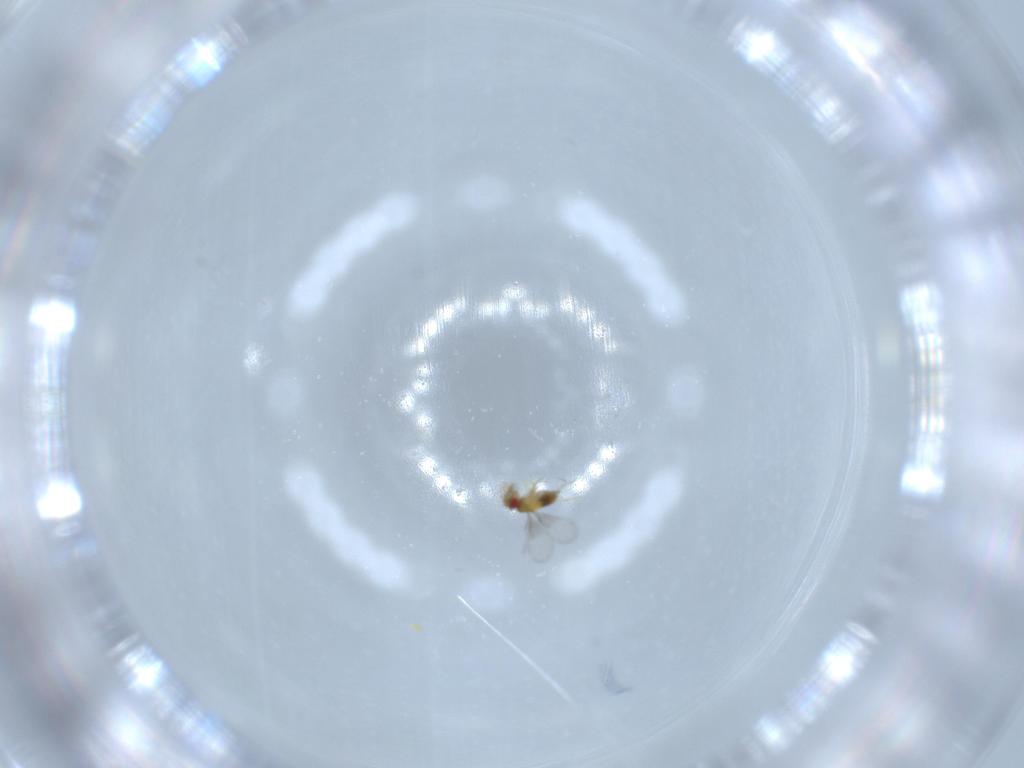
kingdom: Animalia
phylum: Arthropoda
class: Insecta
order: Hymenoptera
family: Trichogrammatidae
